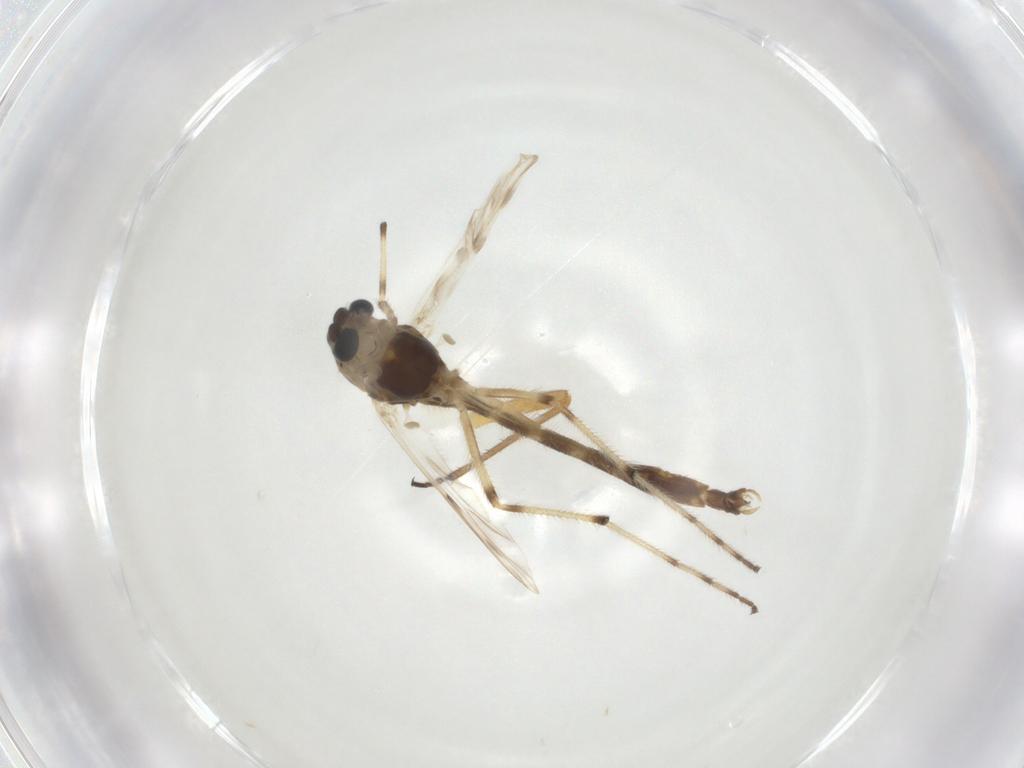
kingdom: Animalia
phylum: Arthropoda
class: Insecta
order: Diptera
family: Chironomidae
